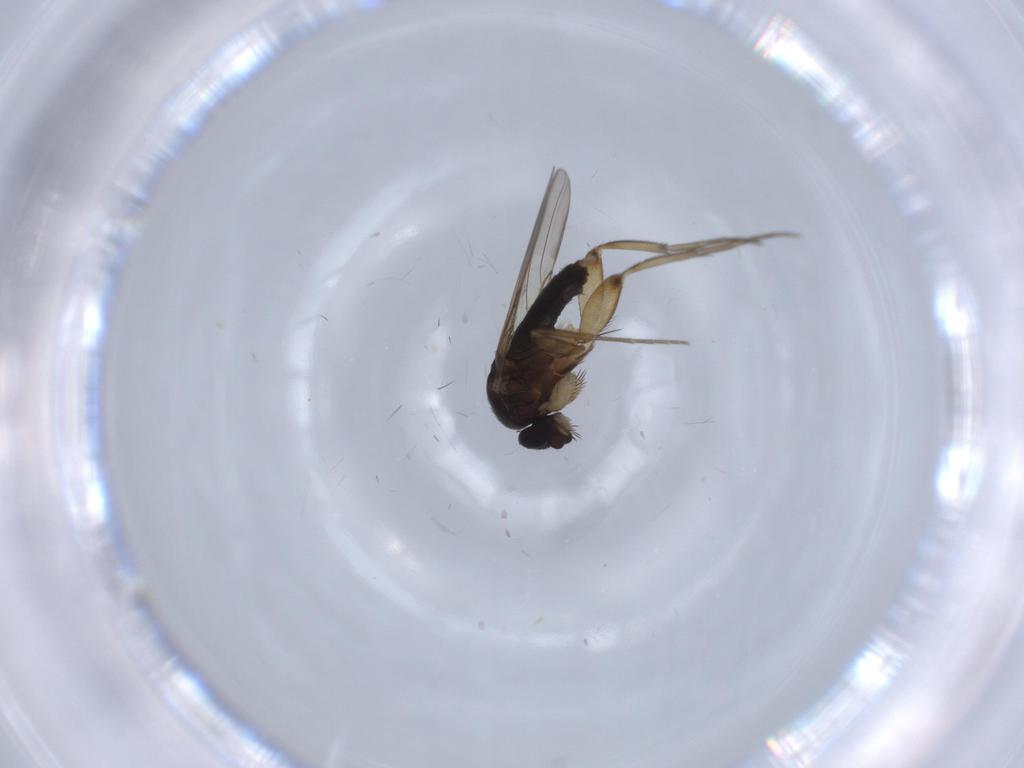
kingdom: Animalia
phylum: Arthropoda
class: Insecta
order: Diptera
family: Phoridae
